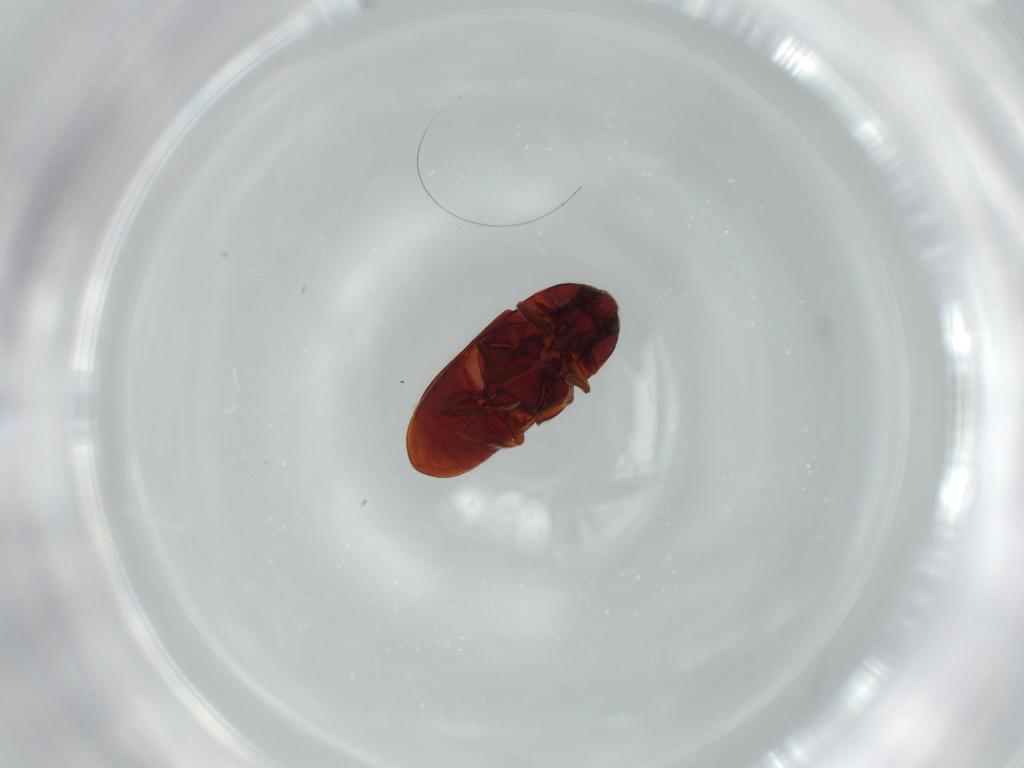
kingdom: Animalia
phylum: Arthropoda
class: Insecta
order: Coleoptera
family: Throscidae
